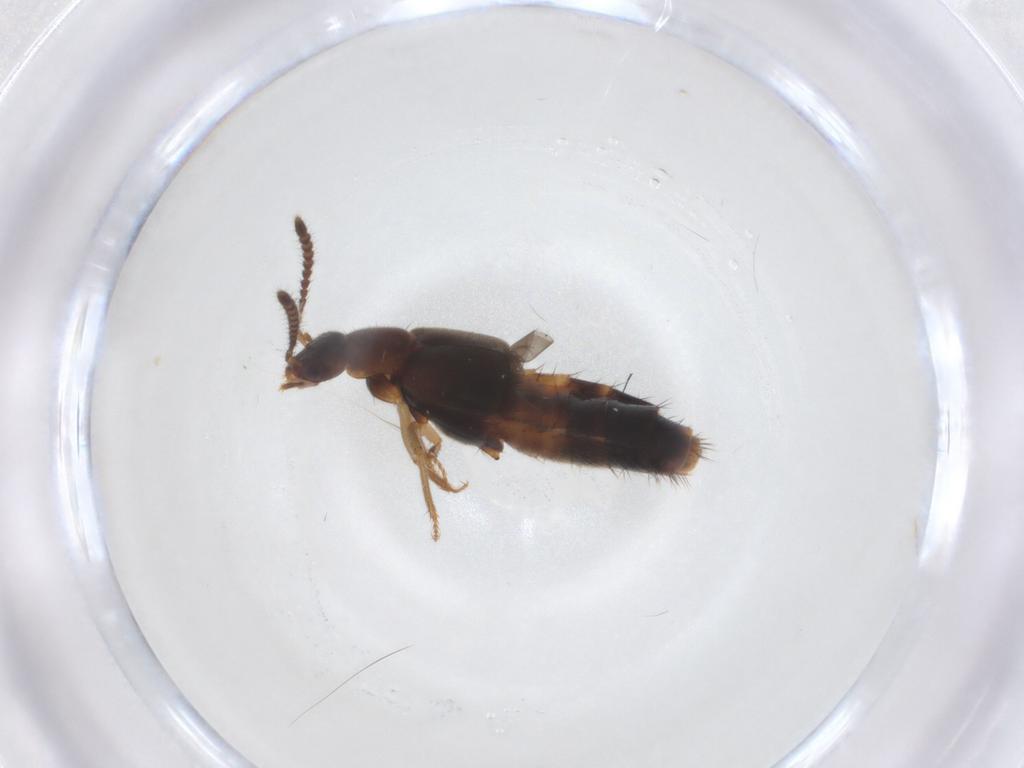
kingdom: Animalia
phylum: Arthropoda
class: Insecta
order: Coleoptera
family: Staphylinidae
